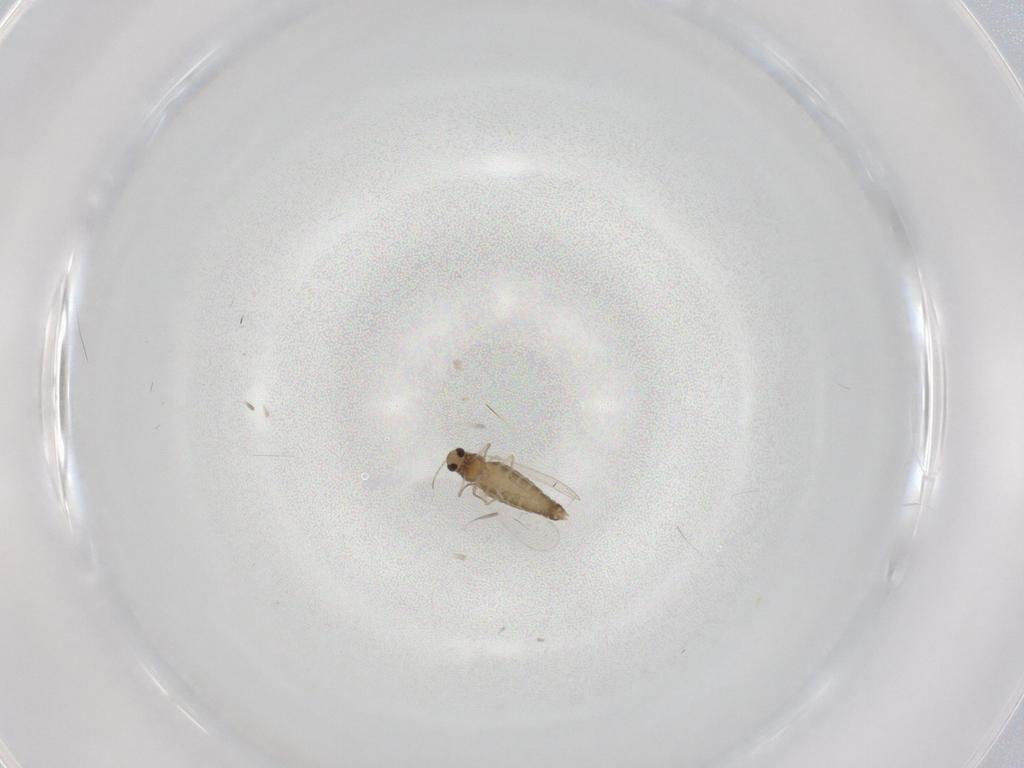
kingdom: Animalia
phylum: Arthropoda
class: Insecta
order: Diptera
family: Chironomidae
